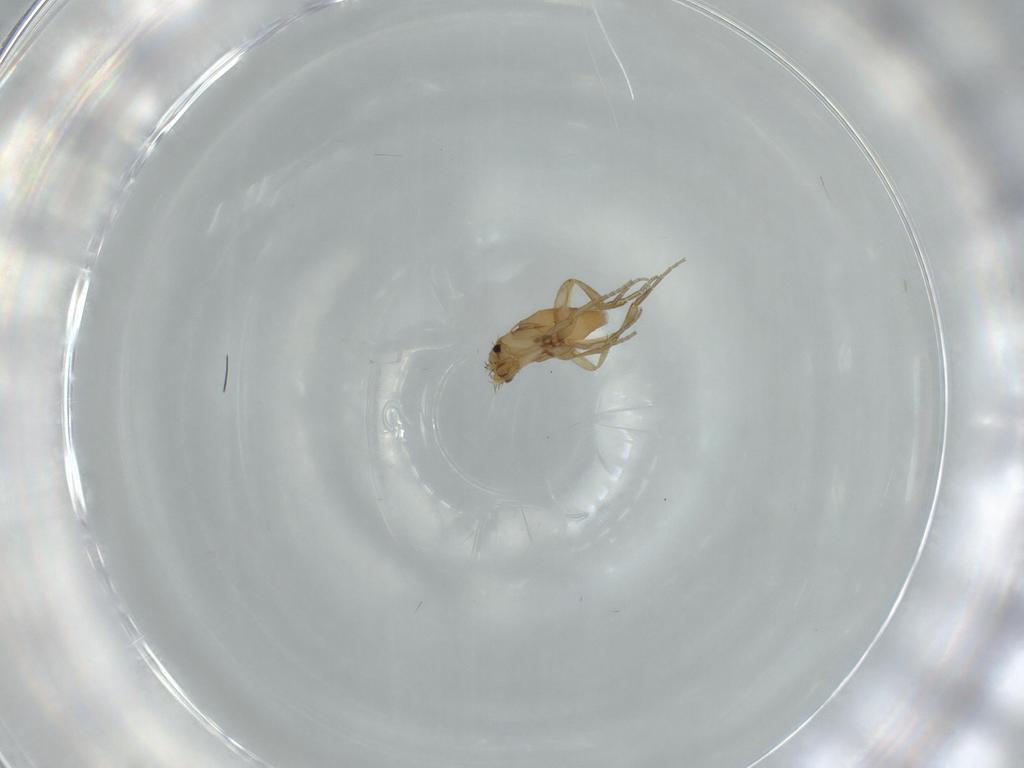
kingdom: Animalia
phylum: Arthropoda
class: Insecta
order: Diptera
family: Phoridae
